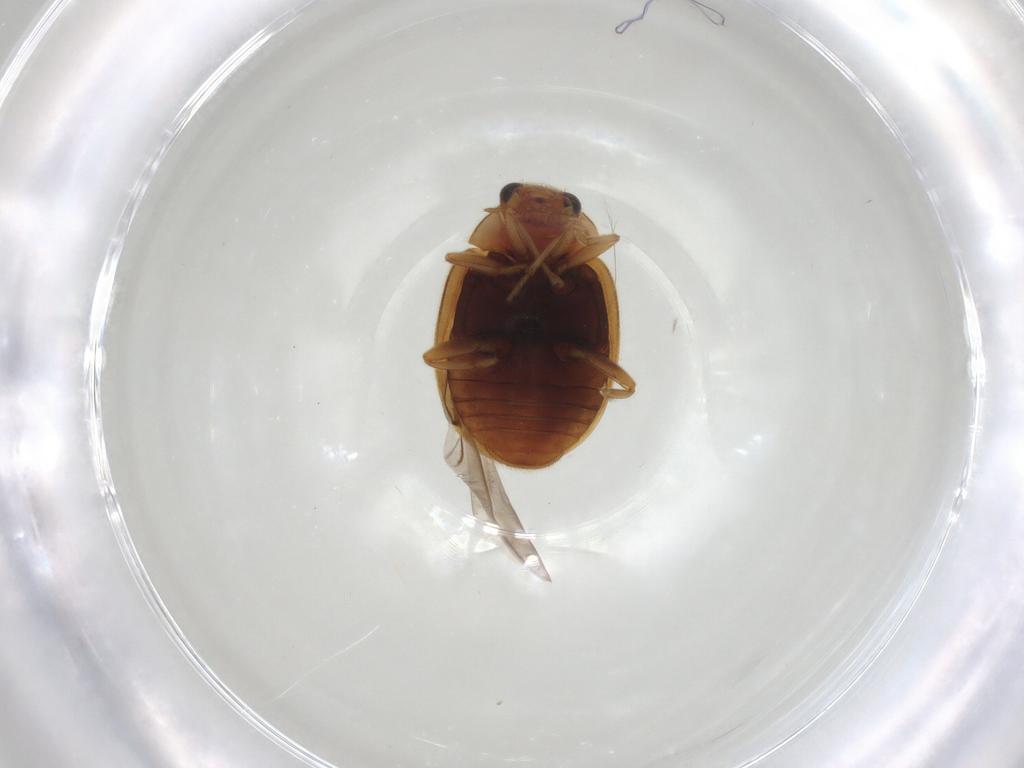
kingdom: Animalia
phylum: Arthropoda
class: Insecta
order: Coleoptera
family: Coccinellidae
